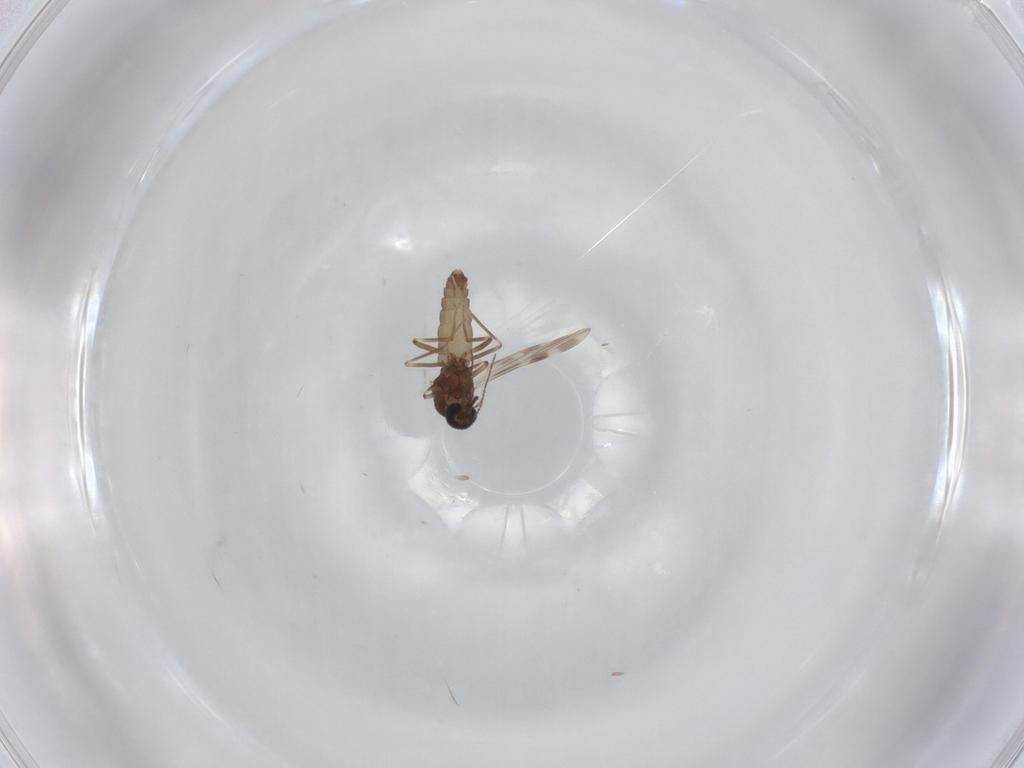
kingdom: Animalia
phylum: Arthropoda
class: Insecta
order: Diptera
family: Ceratopogonidae
